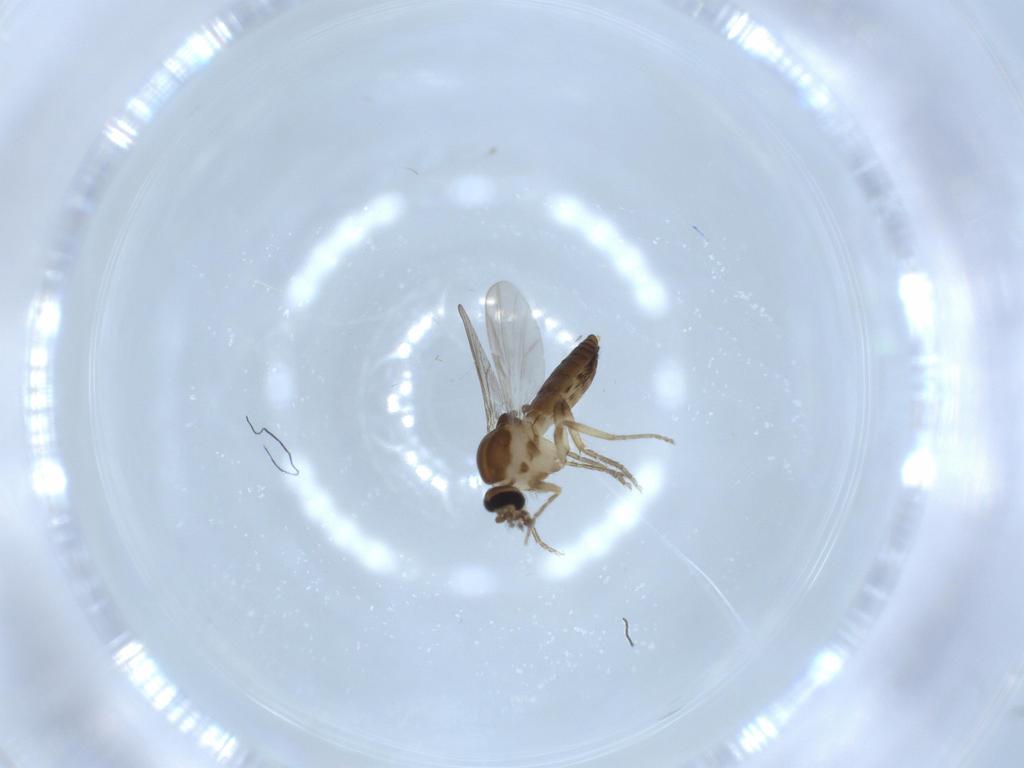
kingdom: Animalia
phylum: Arthropoda
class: Insecta
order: Diptera
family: Ceratopogonidae
